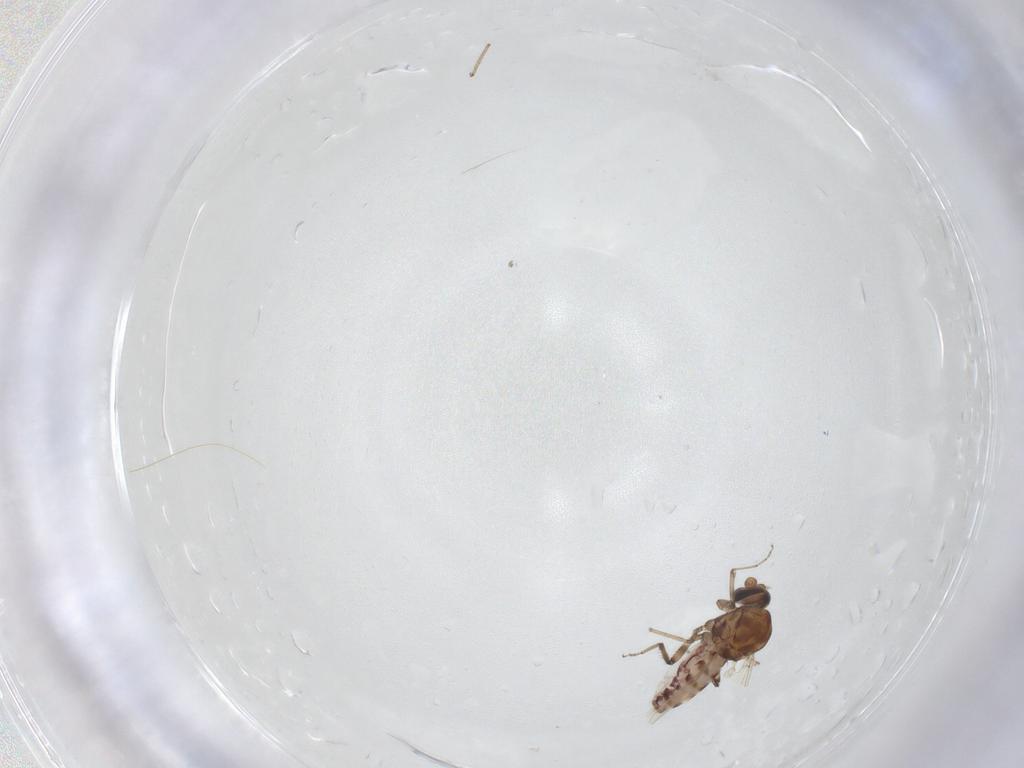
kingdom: Animalia
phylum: Arthropoda
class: Insecta
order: Diptera
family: Ceratopogonidae
